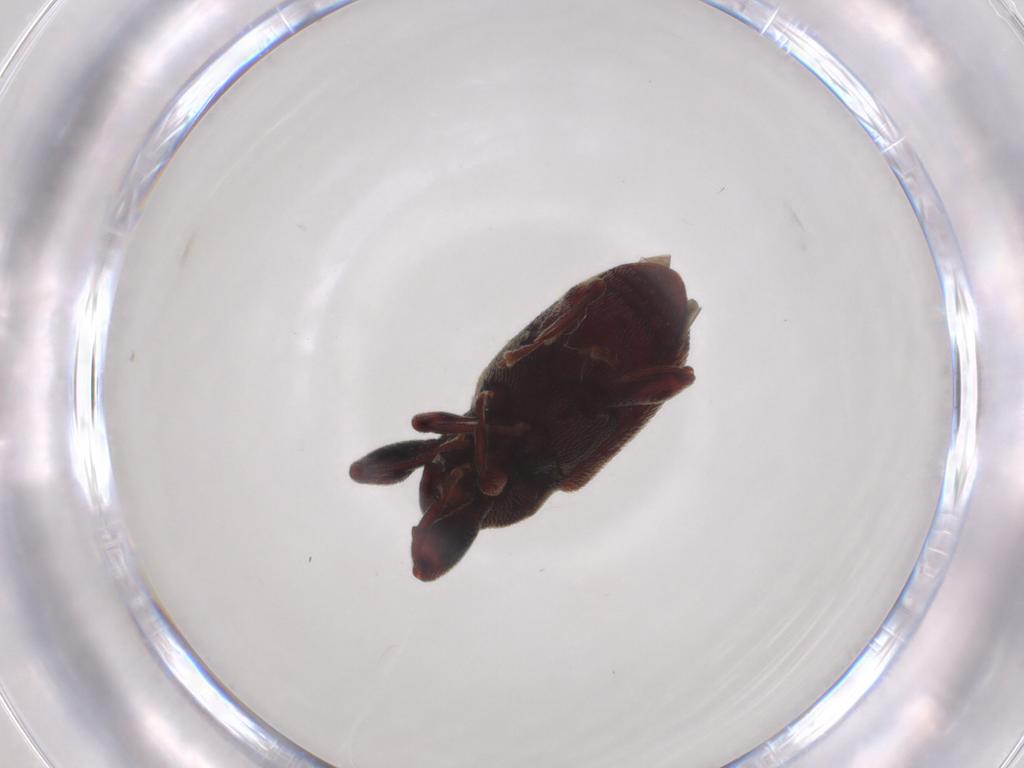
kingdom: Animalia
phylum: Arthropoda
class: Insecta
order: Coleoptera
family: Curculionidae
